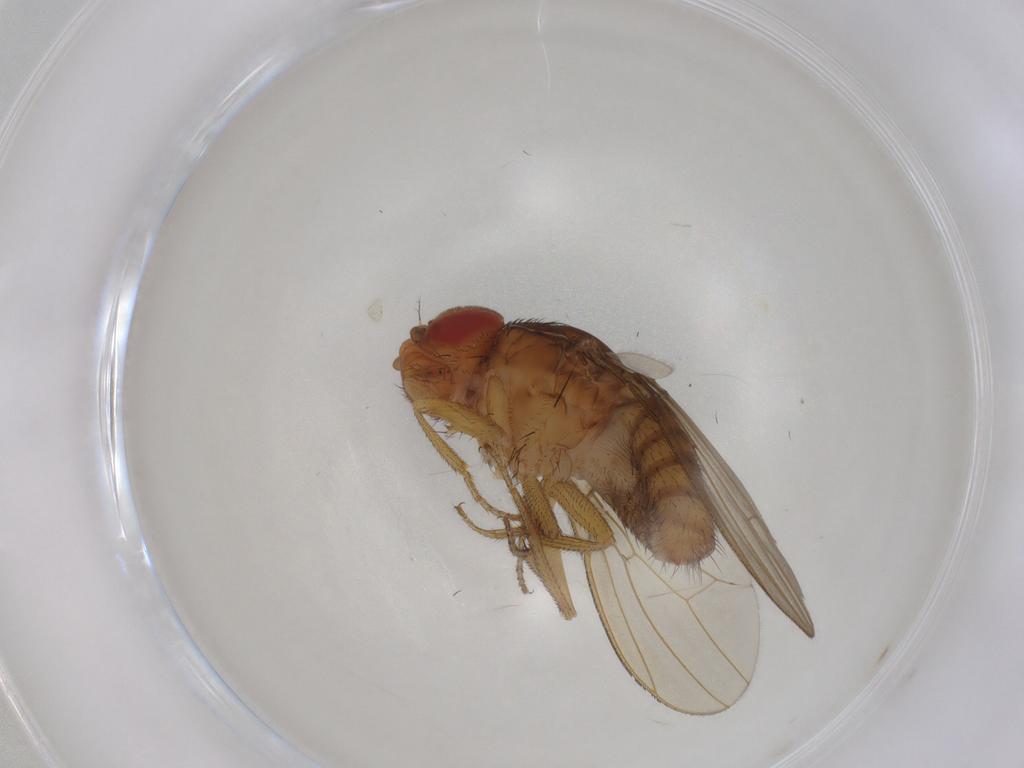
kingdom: Animalia
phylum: Arthropoda
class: Insecta
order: Diptera
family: Drosophilidae
